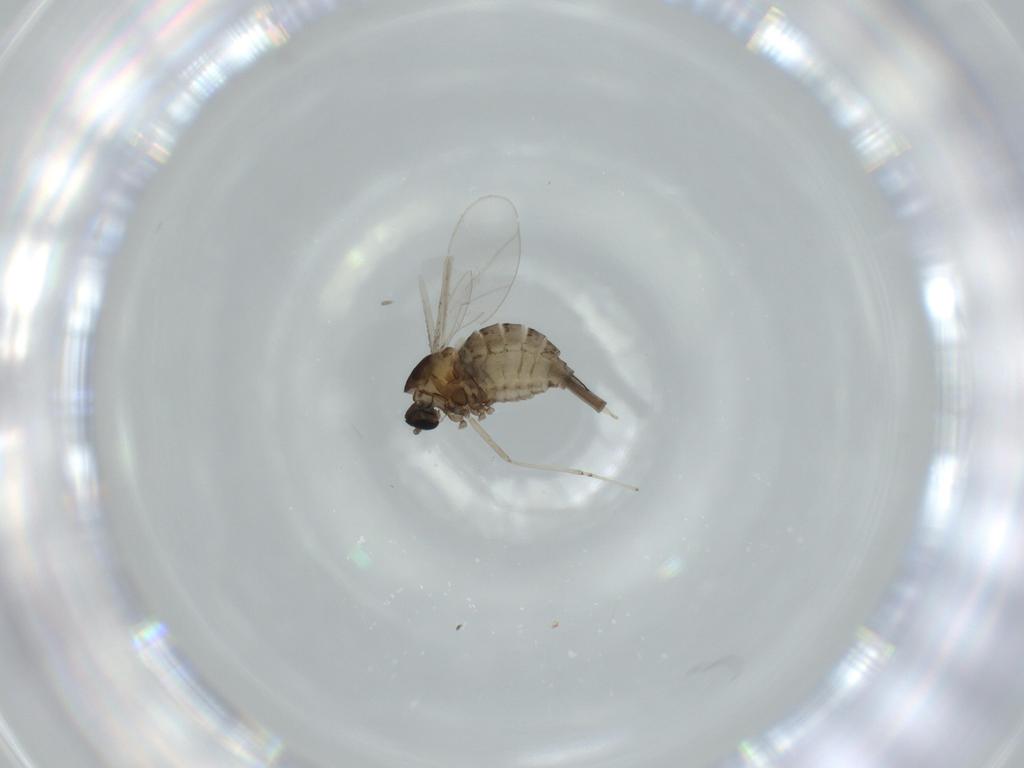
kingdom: Animalia
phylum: Arthropoda
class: Insecta
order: Diptera
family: Cecidomyiidae
